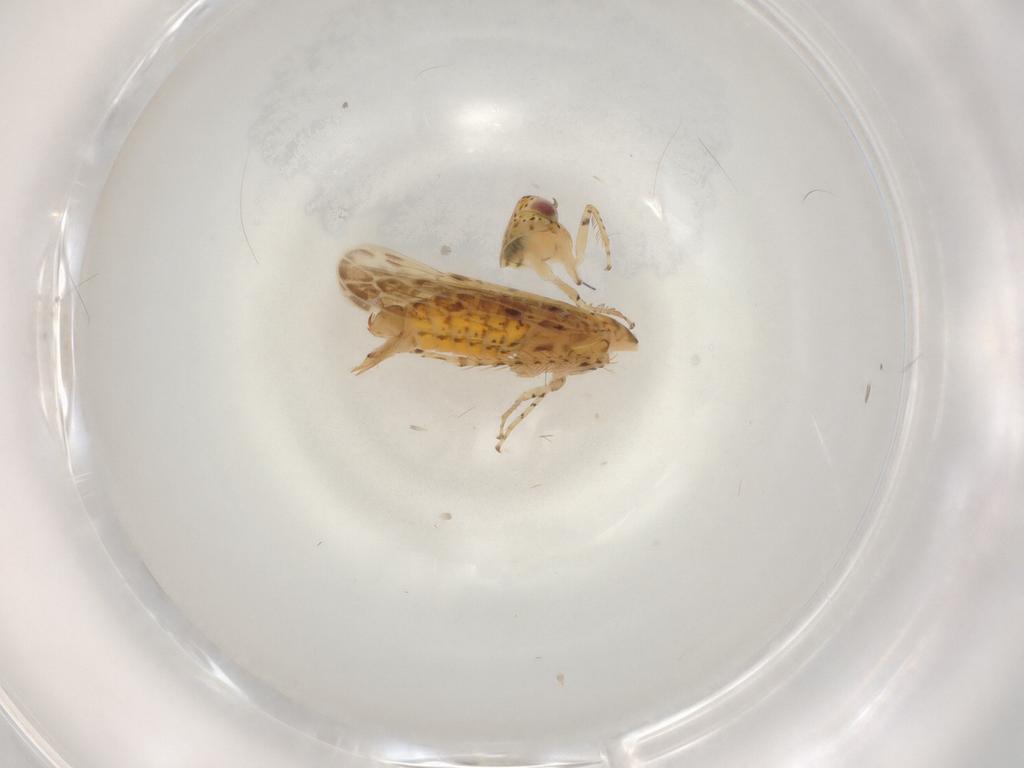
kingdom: Animalia
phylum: Arthropoda
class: Insecta
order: Hemiptera
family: Cicadellidae
